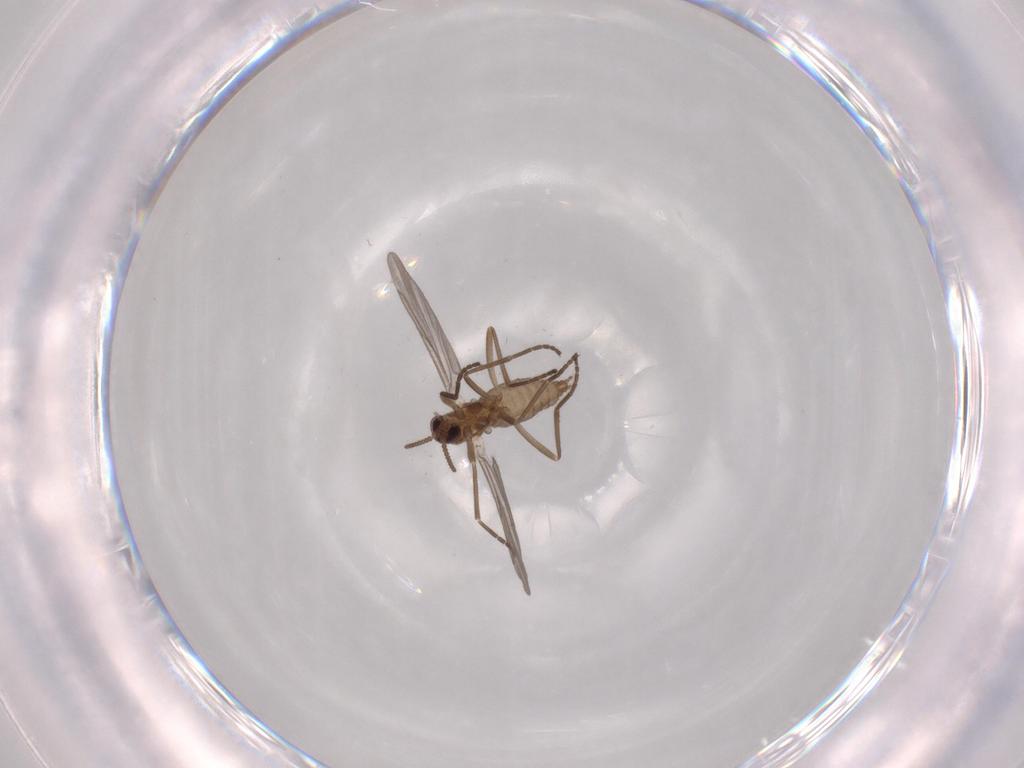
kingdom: Animalia
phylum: Arthropoda
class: Insecta
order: Diptera
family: Cecidomyiidae
